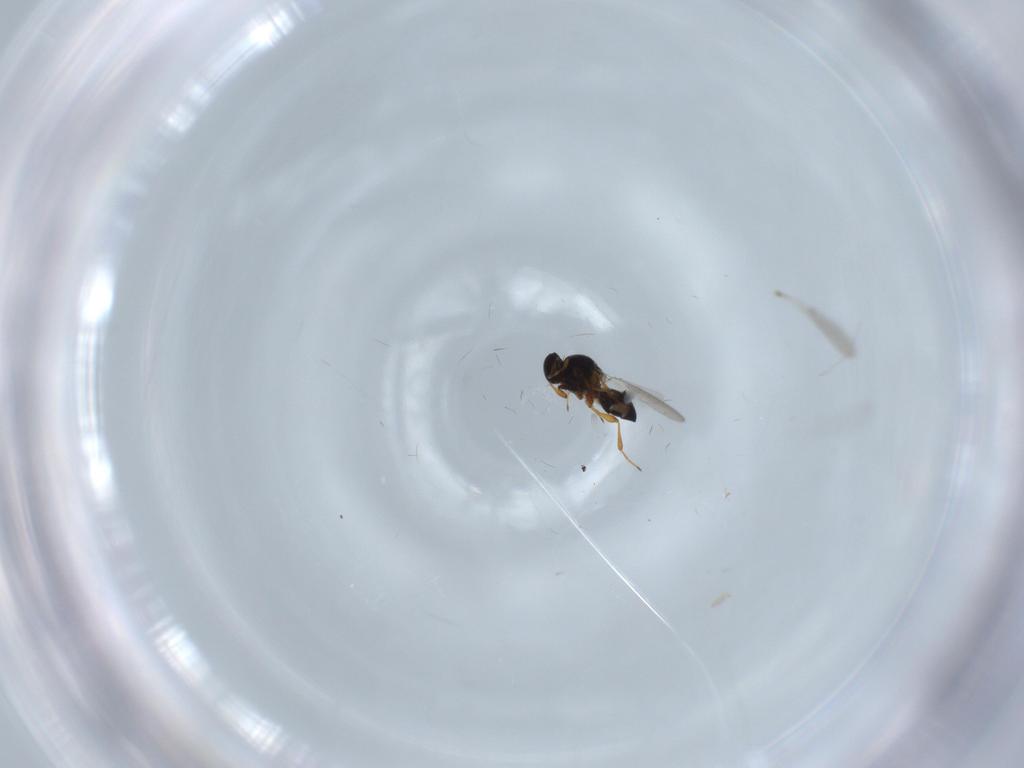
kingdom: Animalia
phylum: Arthropoda
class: Insecta
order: Hymenoptera
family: Platygastridae
